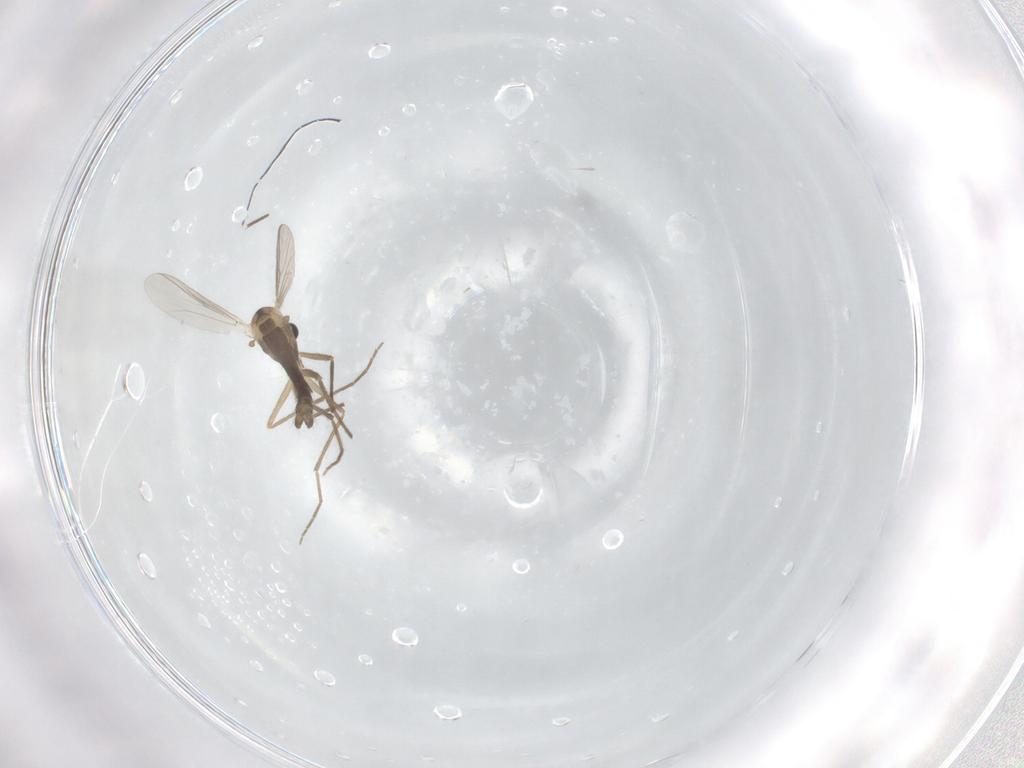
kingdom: Animalia
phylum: Arthropoda
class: Insecta
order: Diptera
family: Chironomidae
